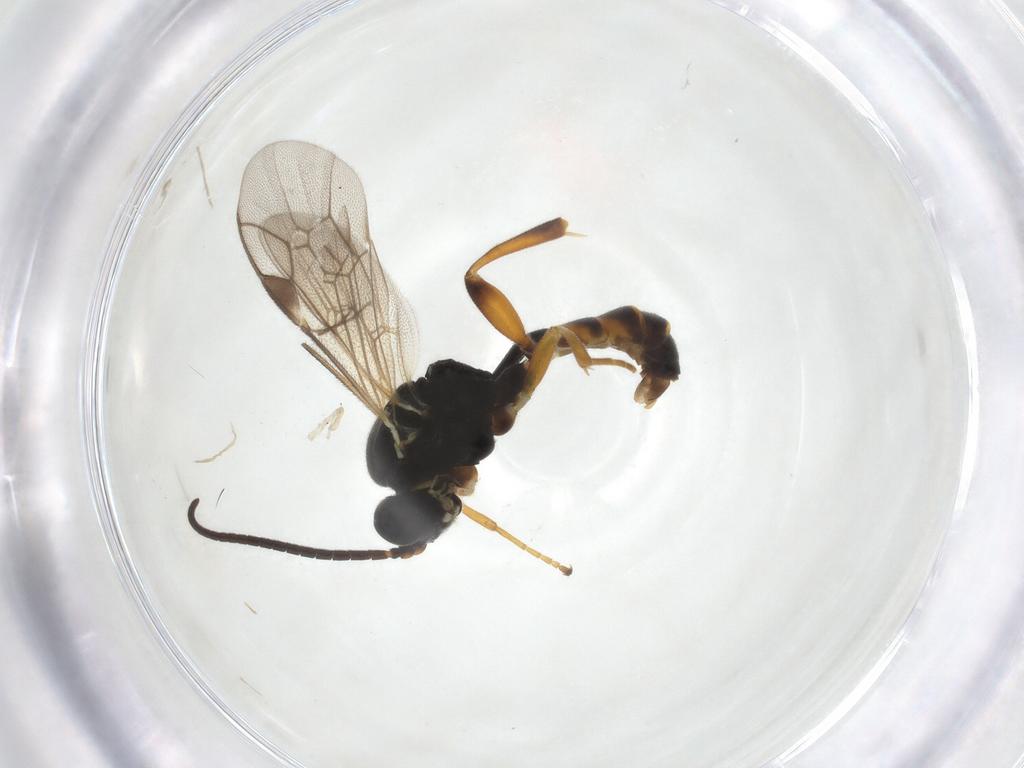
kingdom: Animalia
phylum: Arthropoda
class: Insecta
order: Hymenoptera
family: Ichneumonidae
